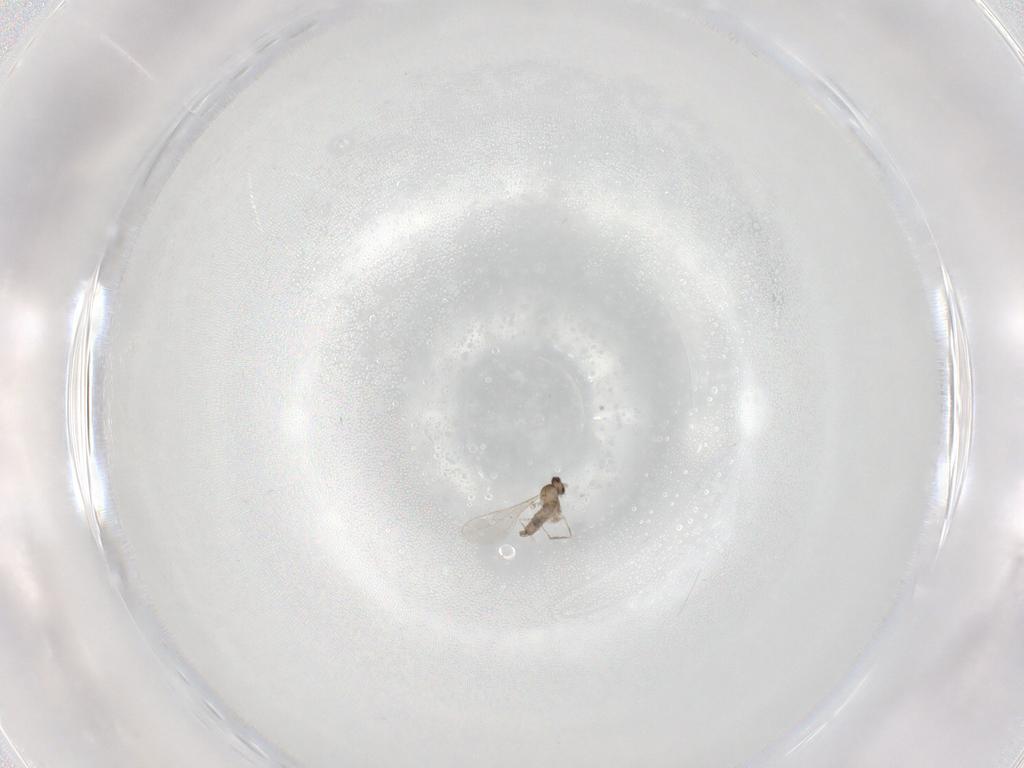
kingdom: Animalia
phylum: Arthropoda
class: Insecta
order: Diptera
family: Cecidomyiidae
